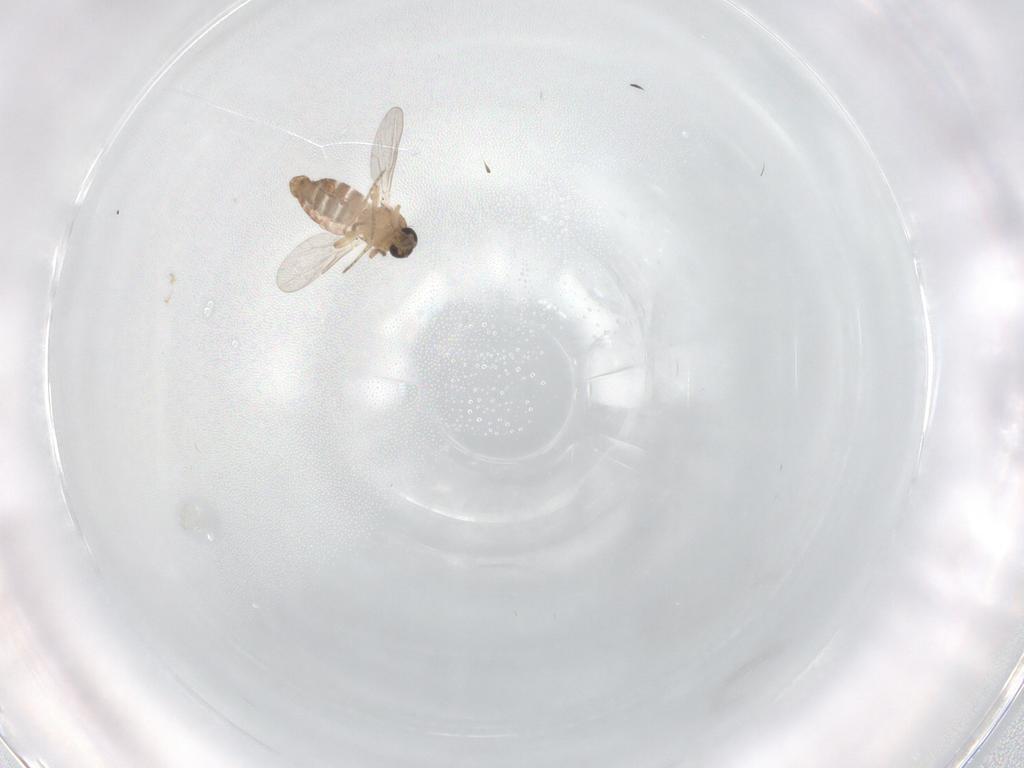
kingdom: Animalia
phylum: Arthropoda
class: Insecta
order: Diptera
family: Ceratopogonidae
